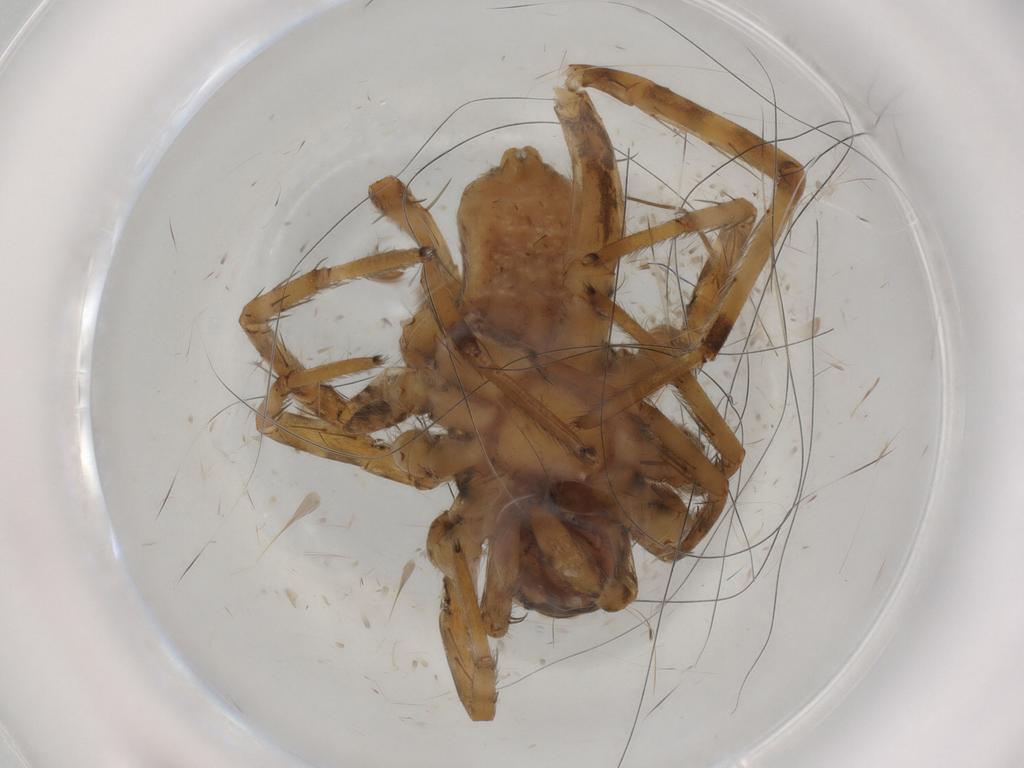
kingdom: Animalia
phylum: Arthropoda
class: Arachnida
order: Araneae
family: Lycosidae
